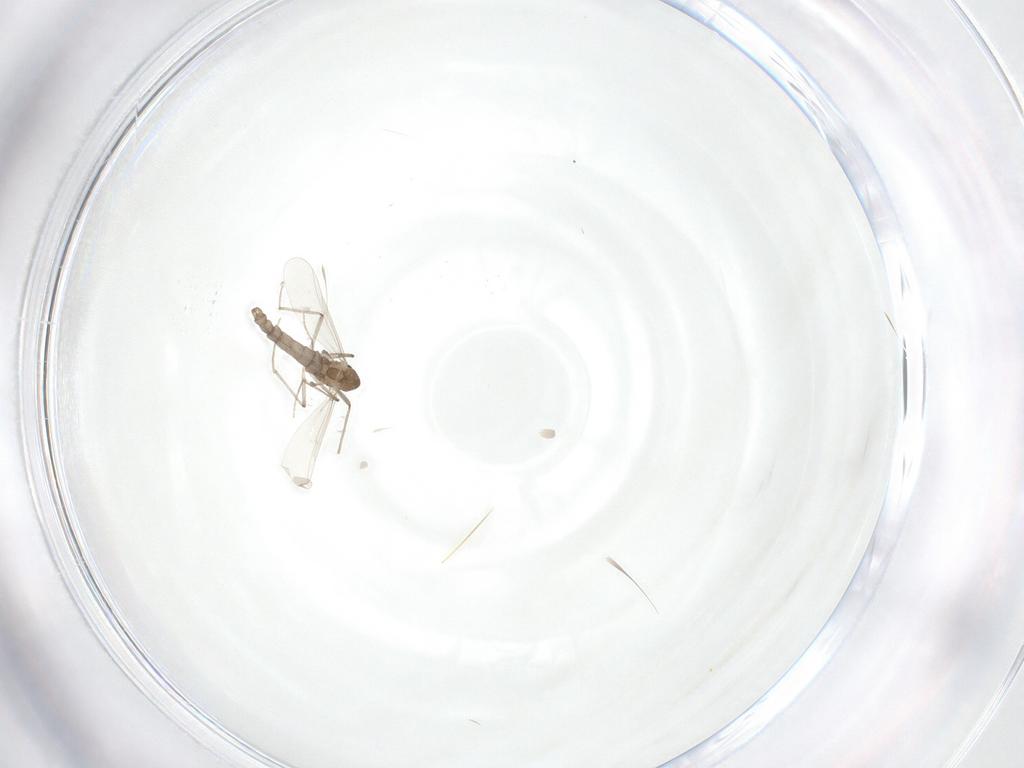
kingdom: Animalia
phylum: Arthropoda
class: Insecta
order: Diptera
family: Chironomidae
